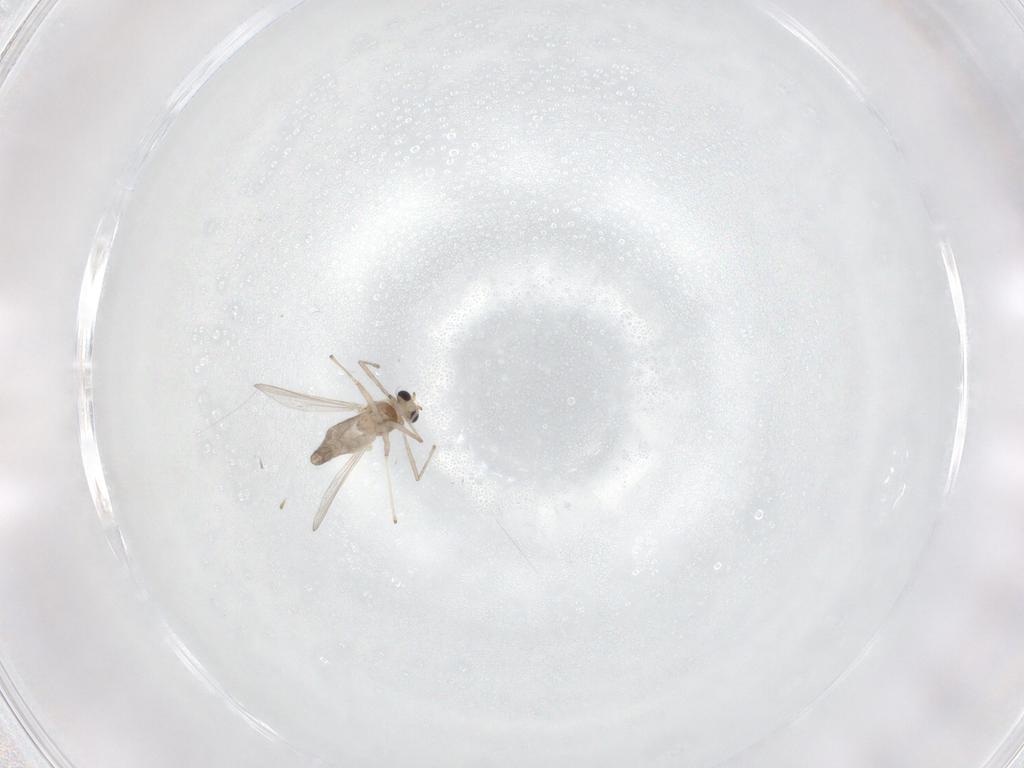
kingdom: Animalia
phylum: Arthropoda
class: Insecta
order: Diptera
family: Chironomidae
